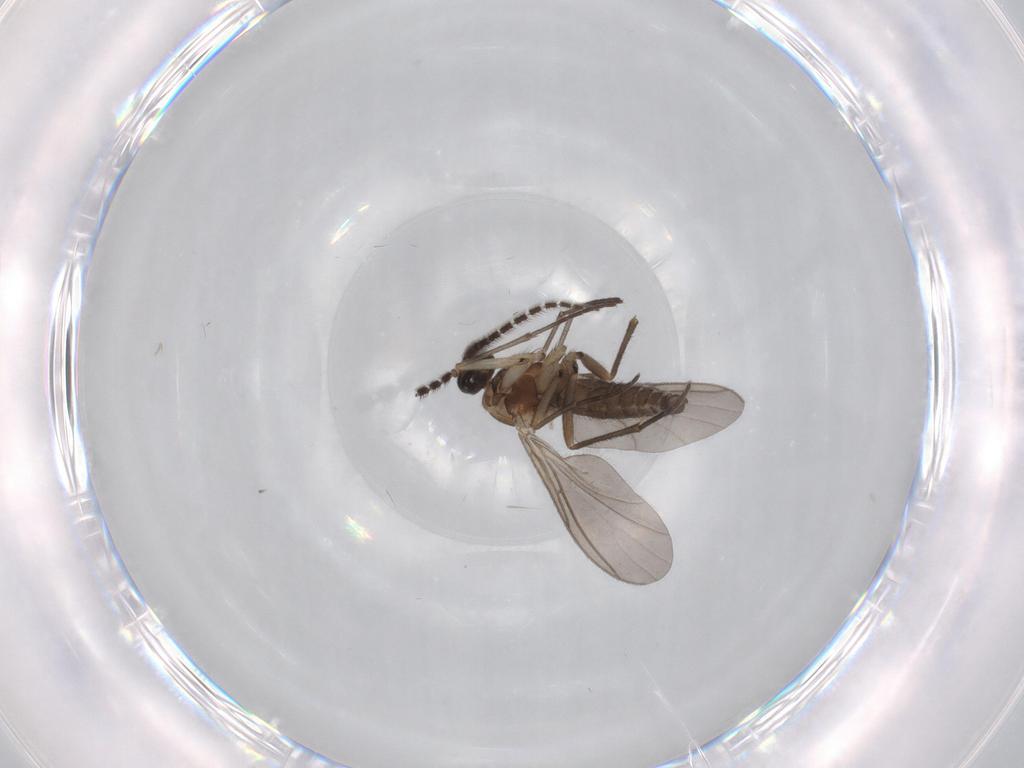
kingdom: Animalia
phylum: Arthropoda
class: Insecta
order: Diptera
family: Sciaridae
